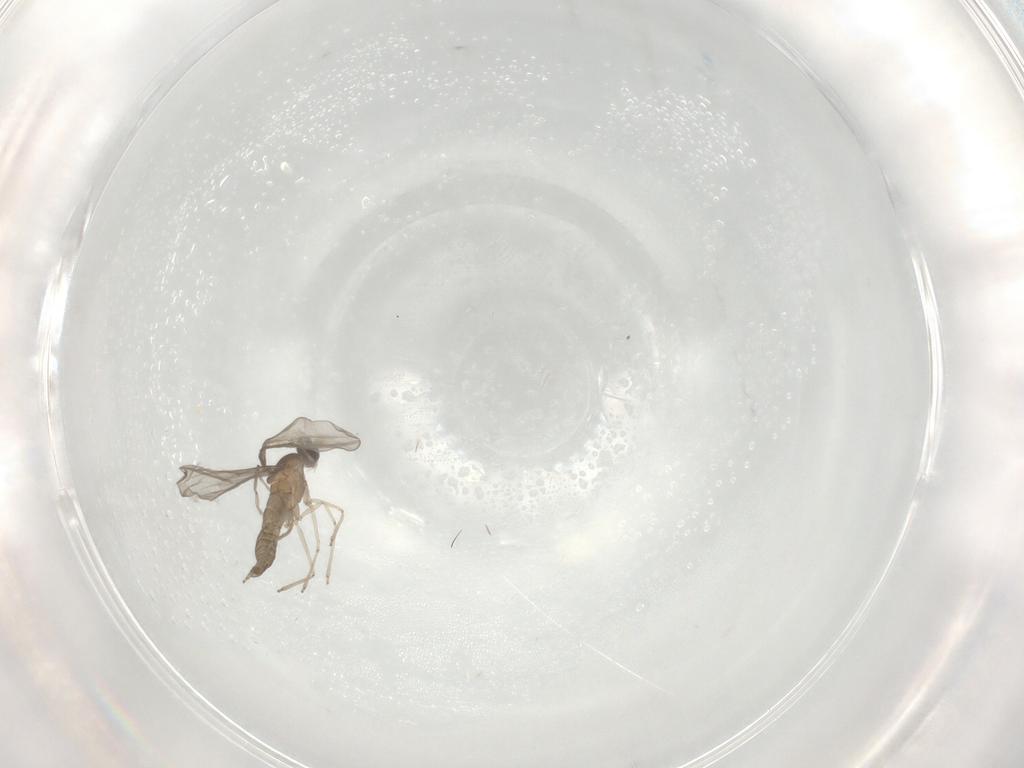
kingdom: Animalia
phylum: Arthropoda
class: Insecta
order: Diptera
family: Cecidomyiidae
